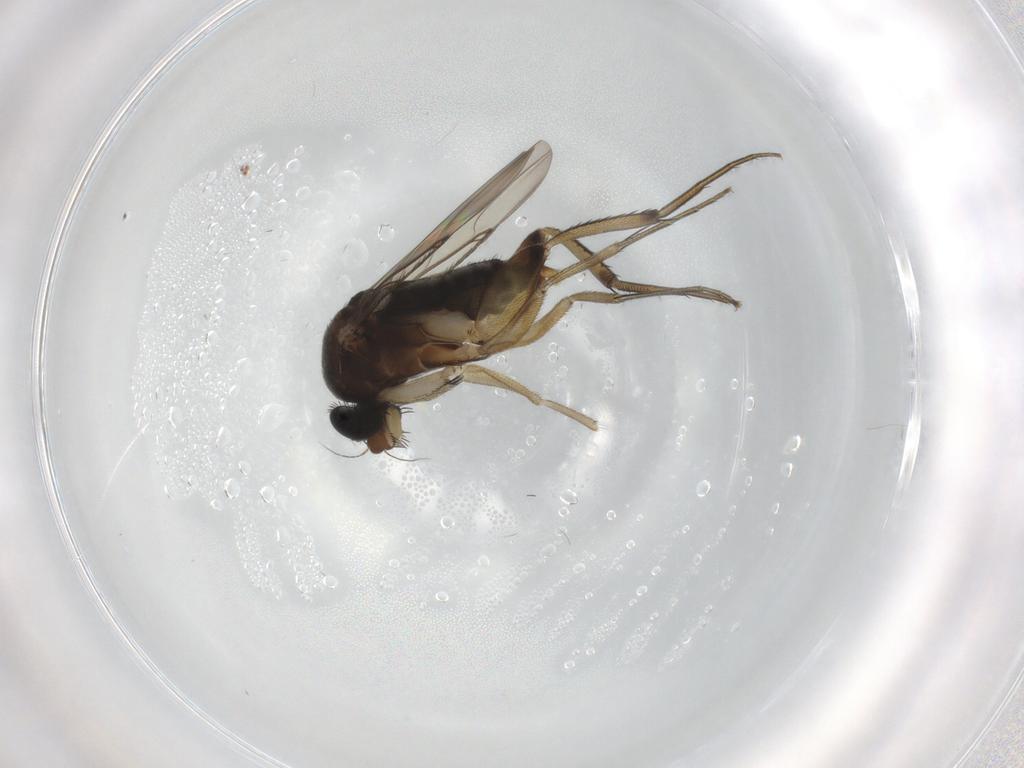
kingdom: Animalia
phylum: Arthropoda
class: Insecta
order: Diptera
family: Phoridae
